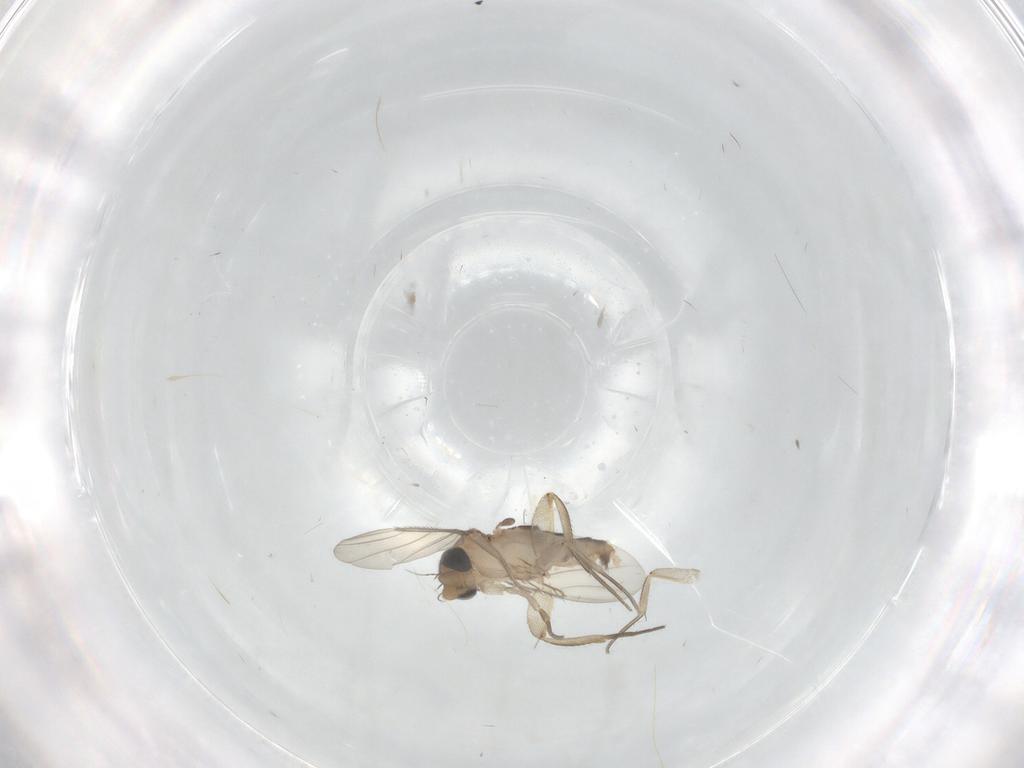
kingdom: Animalia
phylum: Arthropoda
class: Insecta
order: Diptera
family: Phoridae
